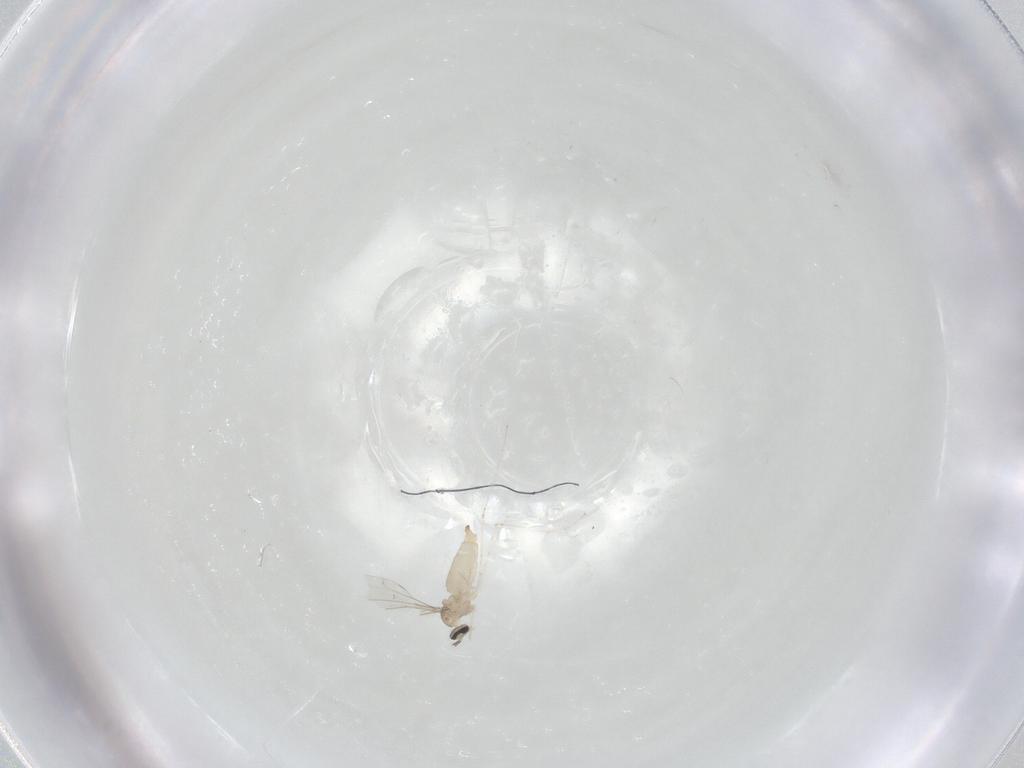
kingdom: Animalia
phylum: Arthropoda
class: Insecta
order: Diptera
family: Cecidomyiidae
